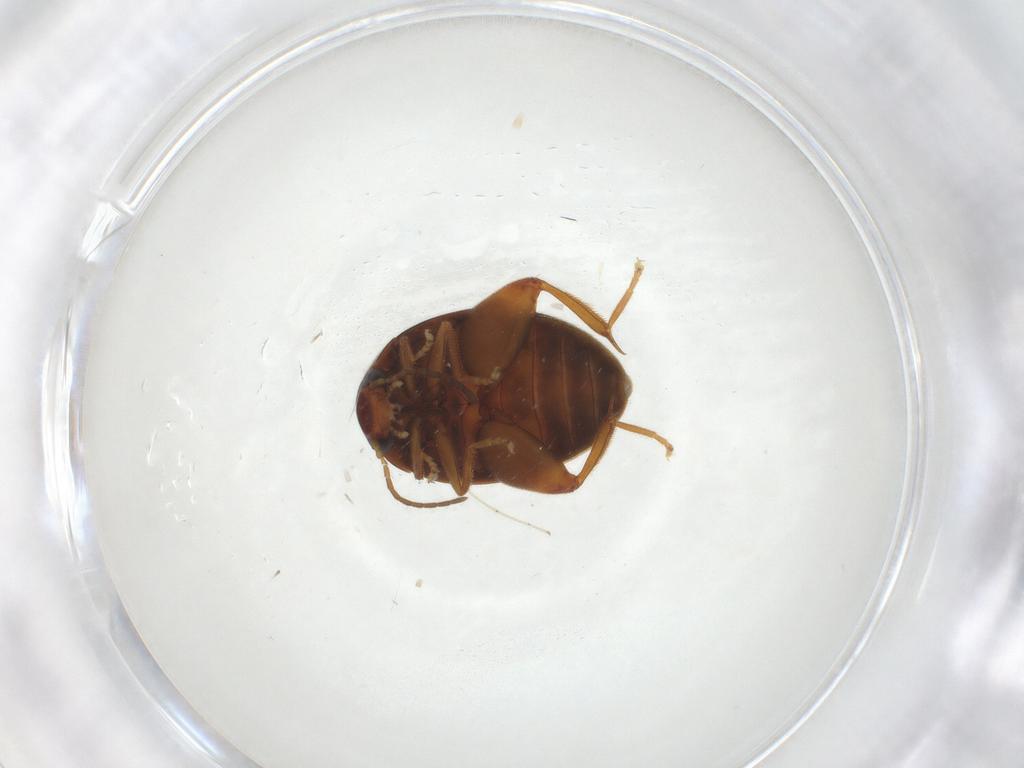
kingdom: Animalia
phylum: Arthropoda
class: Insecta
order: Coleoptera
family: Scirtidae
